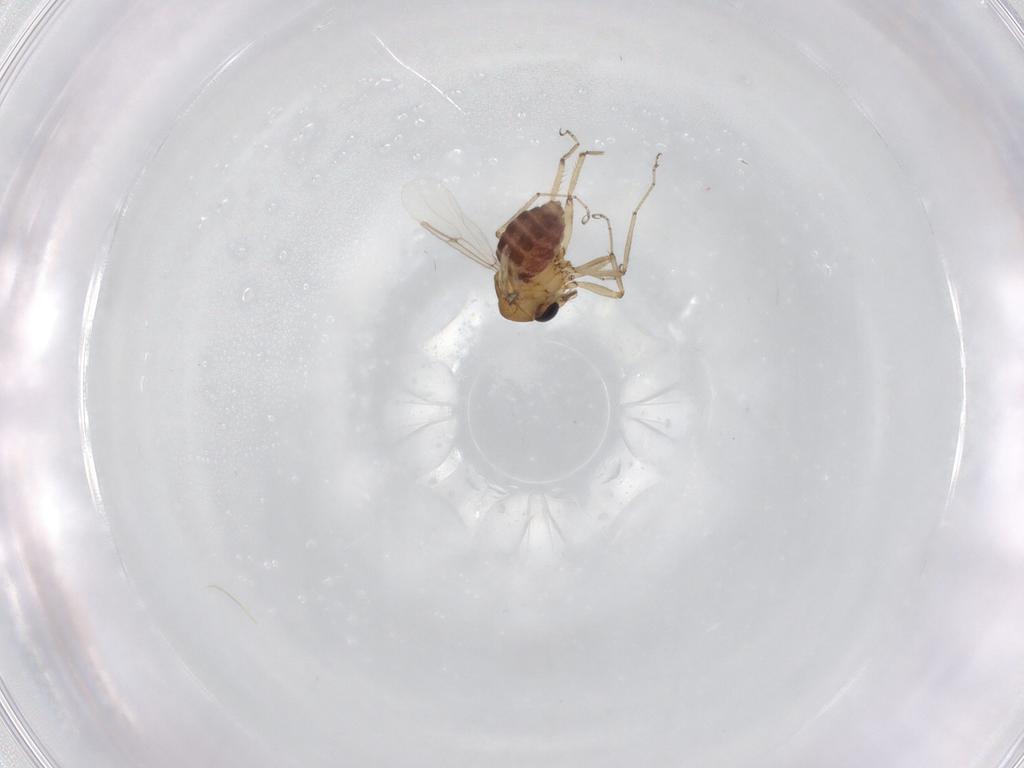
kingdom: Animalia
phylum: Arthropoda
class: Insecta
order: Diptera
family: Ceratopogonidae
